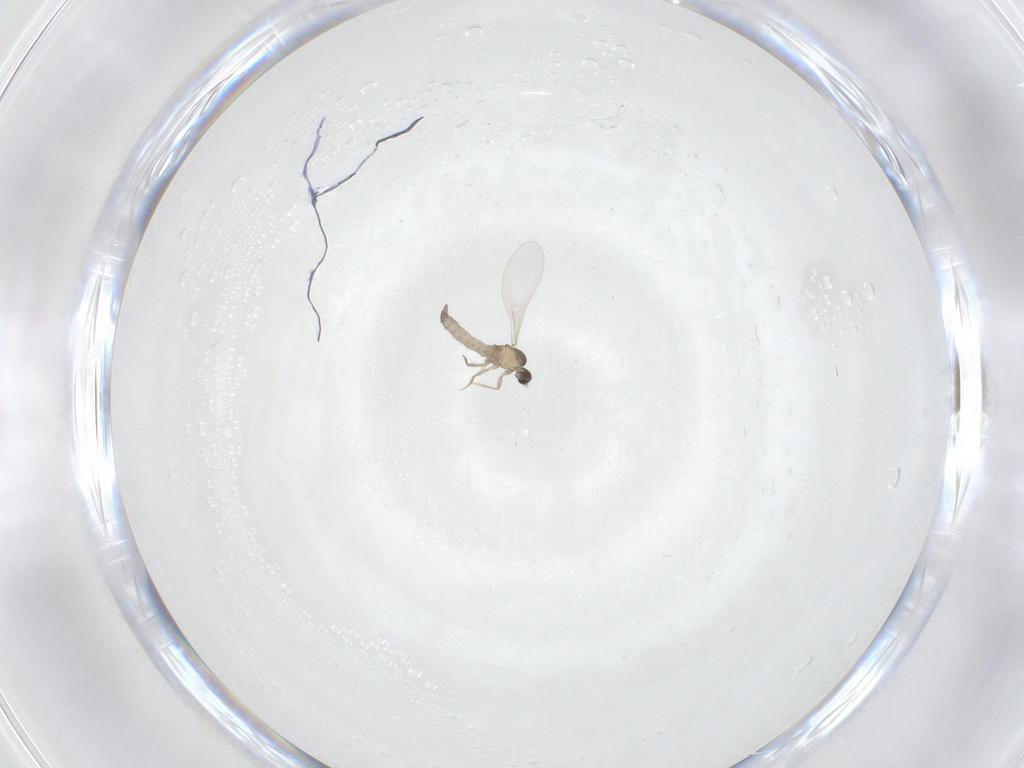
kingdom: Animalia
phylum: Arthropoda
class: Insecta
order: Diptera
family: Cecidomyiidae
